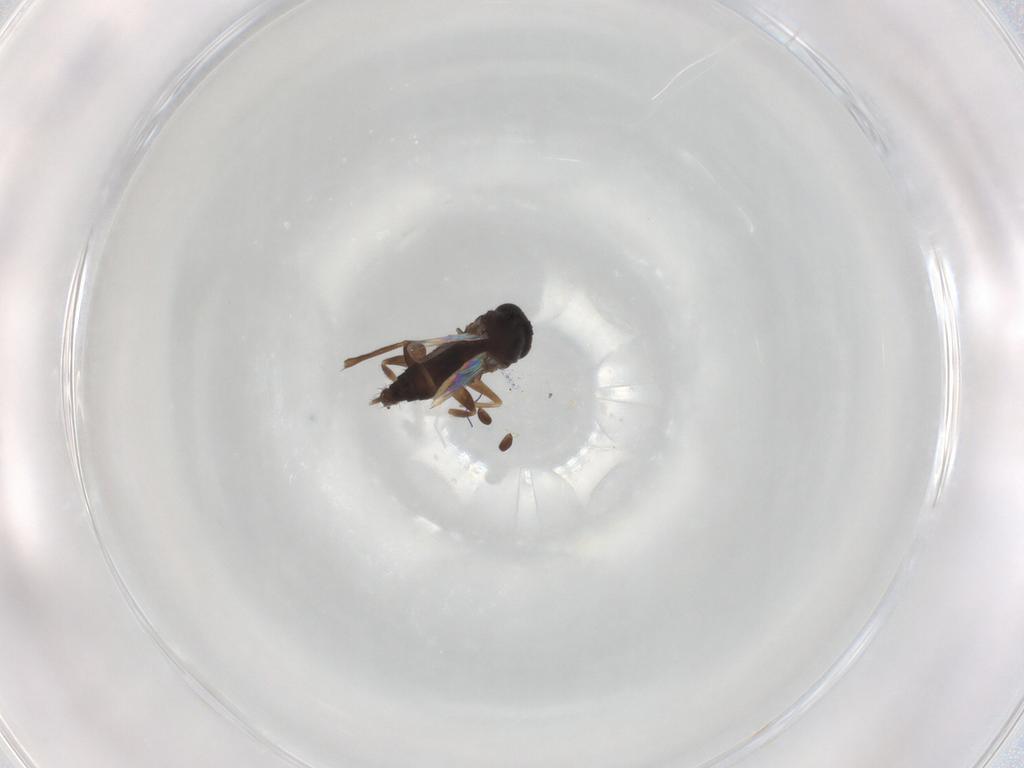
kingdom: Animalia
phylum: Arthropoda
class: Insecta
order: Diptera
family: Phoridae
